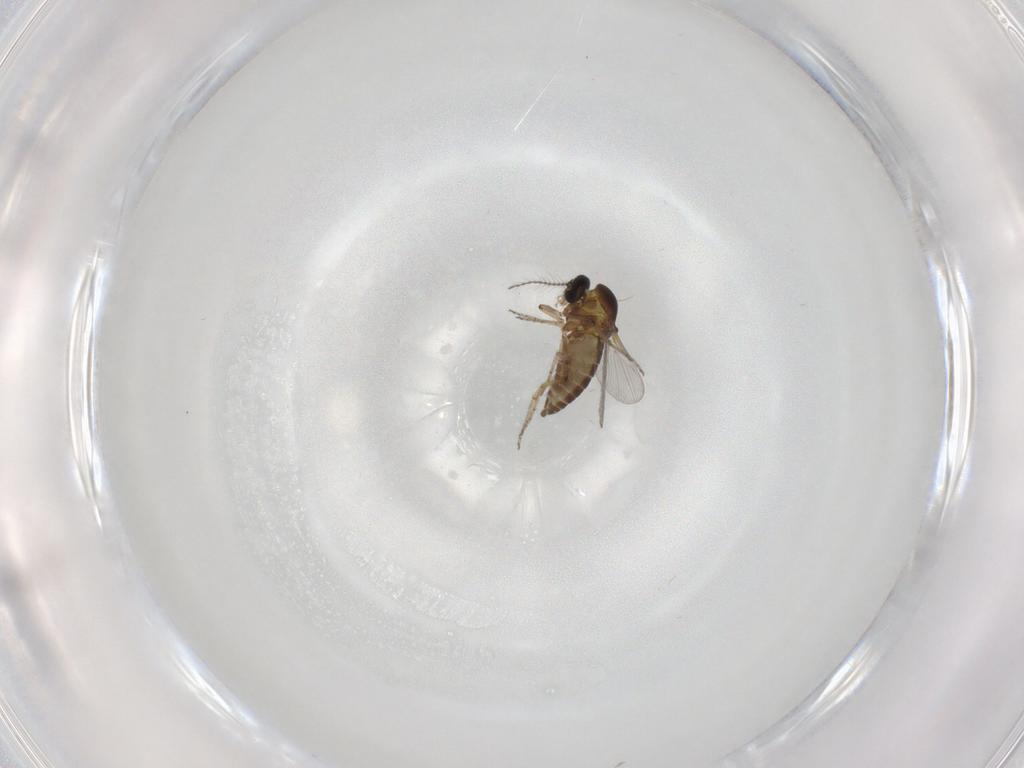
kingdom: Animalia
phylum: Arthropoda
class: Insecta
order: Diptera
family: Ceratopogonidae
